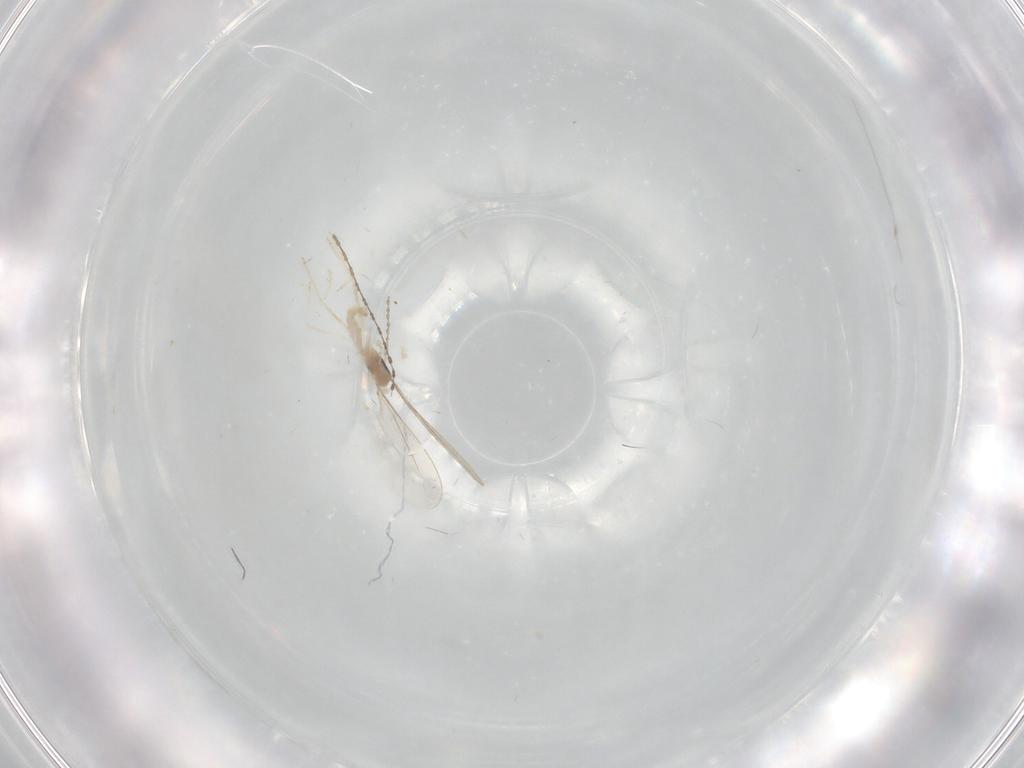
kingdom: Animalia
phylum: Arthropoda
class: Insecta
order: Diptera
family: Cecidomyiidae
